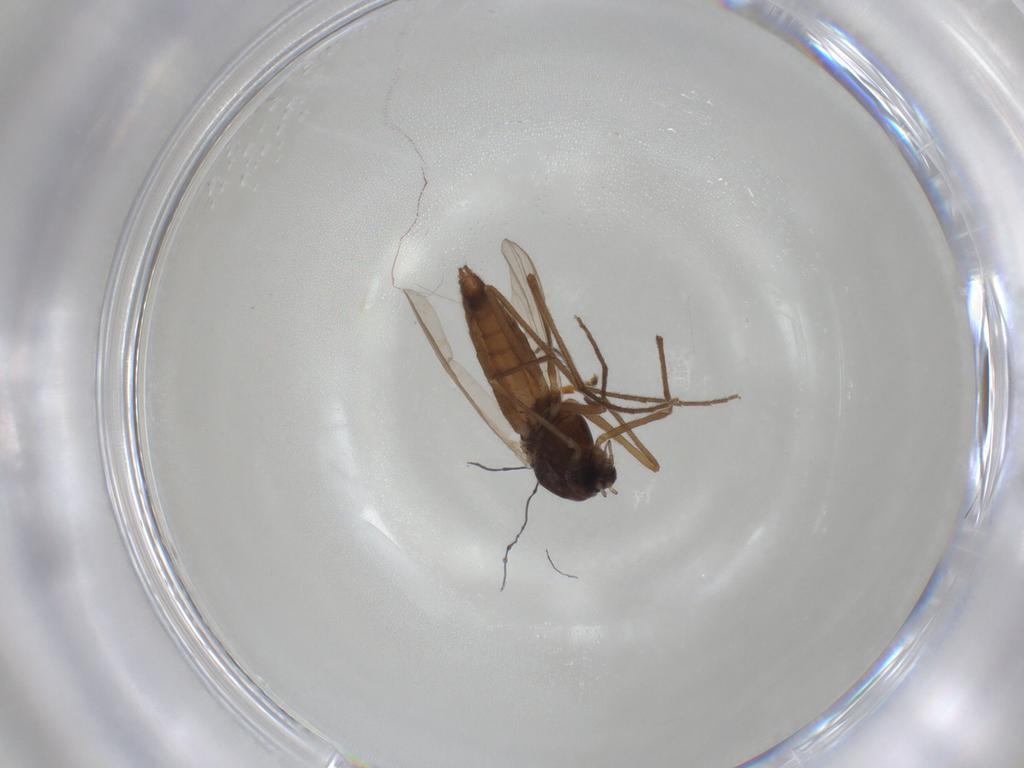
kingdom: Animalia
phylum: Arthropoda
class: Insecta
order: Diptera
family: Chironomidae
